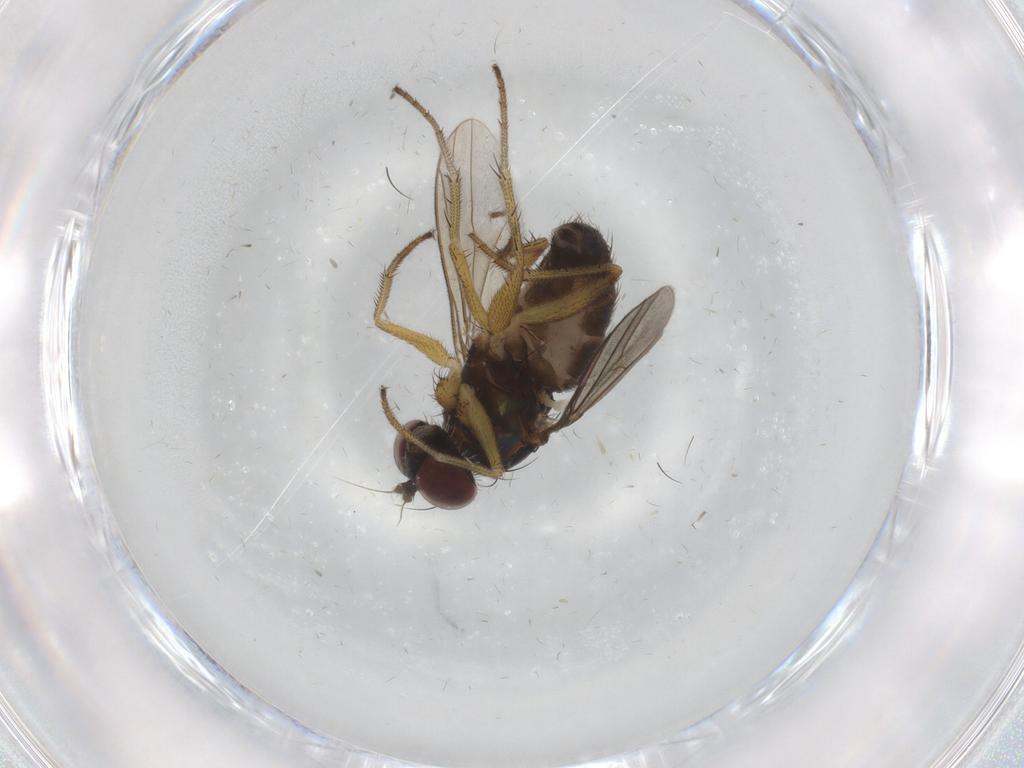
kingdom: Animalia
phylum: Arthropoda
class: Insecta
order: Diptera
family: Dolichopodidae
